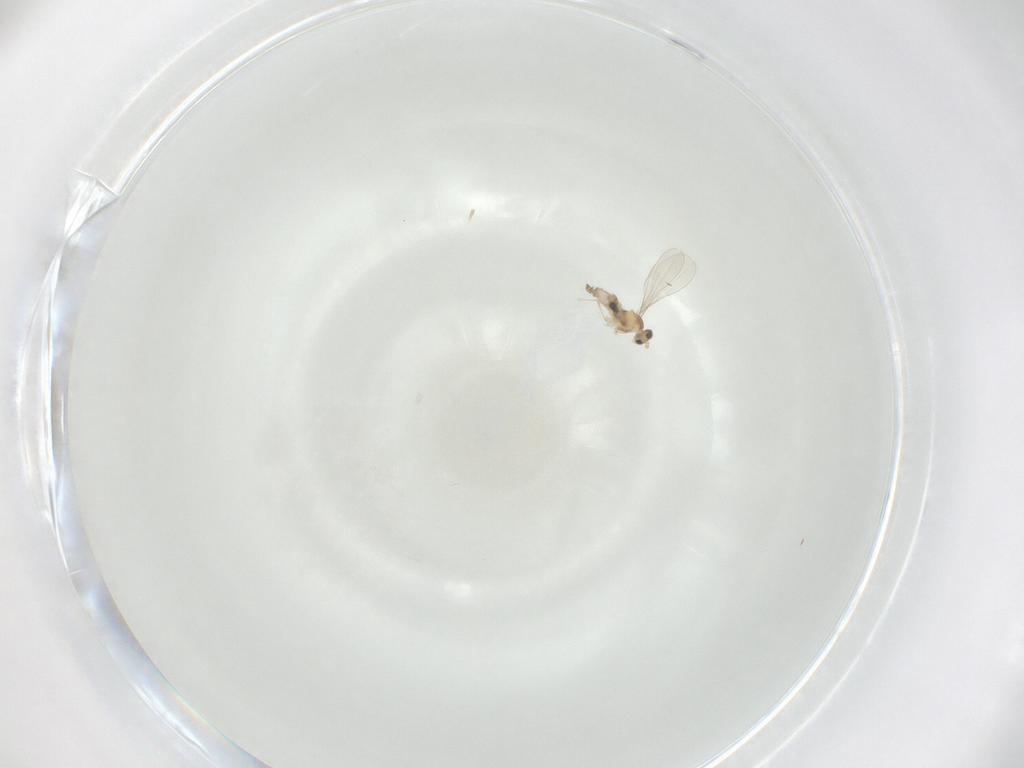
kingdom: Animalia
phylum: Arthropoda
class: Insecta
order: Diptera
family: Cecidomyiidae
